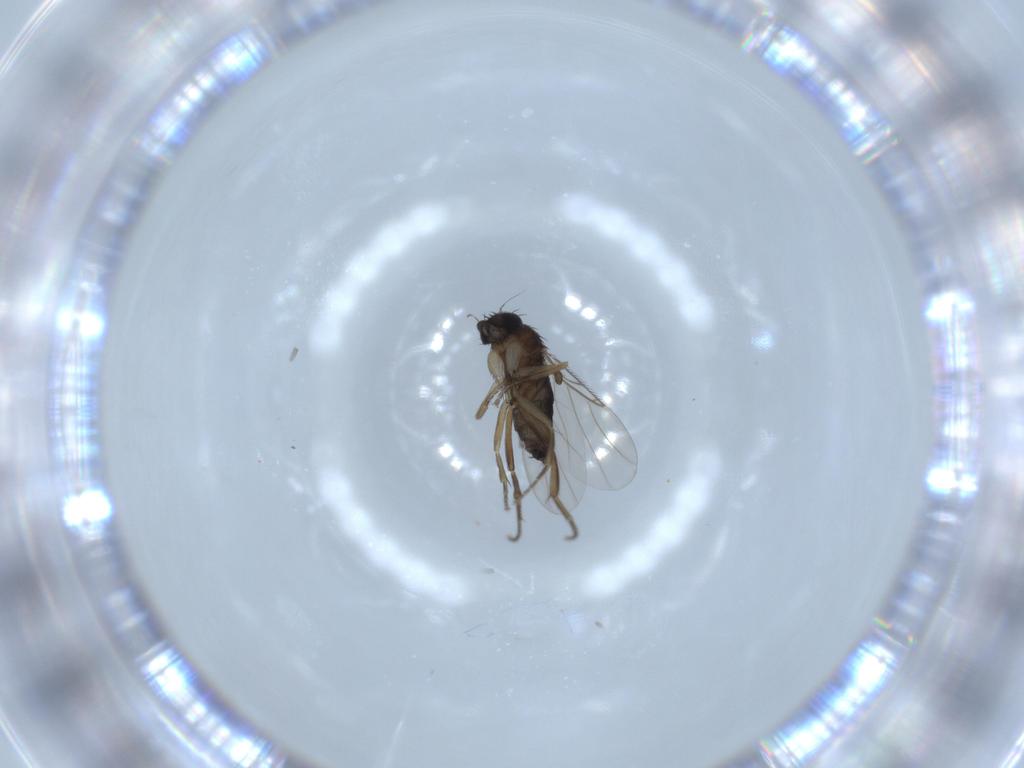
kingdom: Animalia
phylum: Arthropoda
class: Insecta
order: Diptera
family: Phoridae
